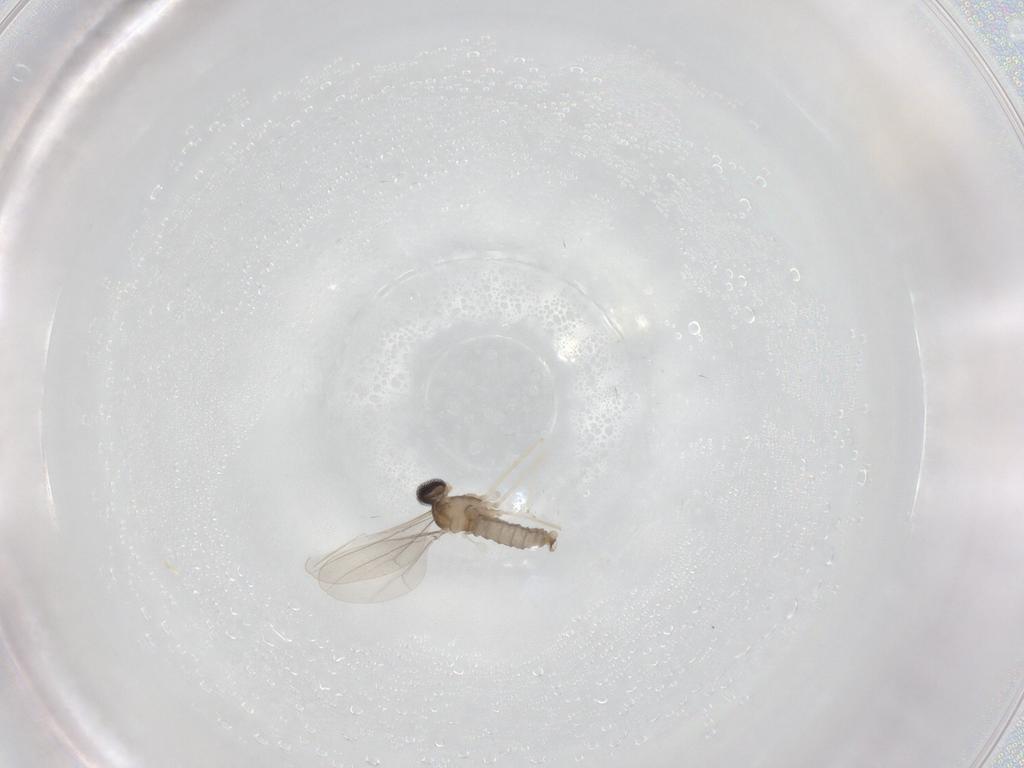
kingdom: Animalia
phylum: Arthropoda
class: Insecta
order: Diptera
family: Cecidomyiidae
